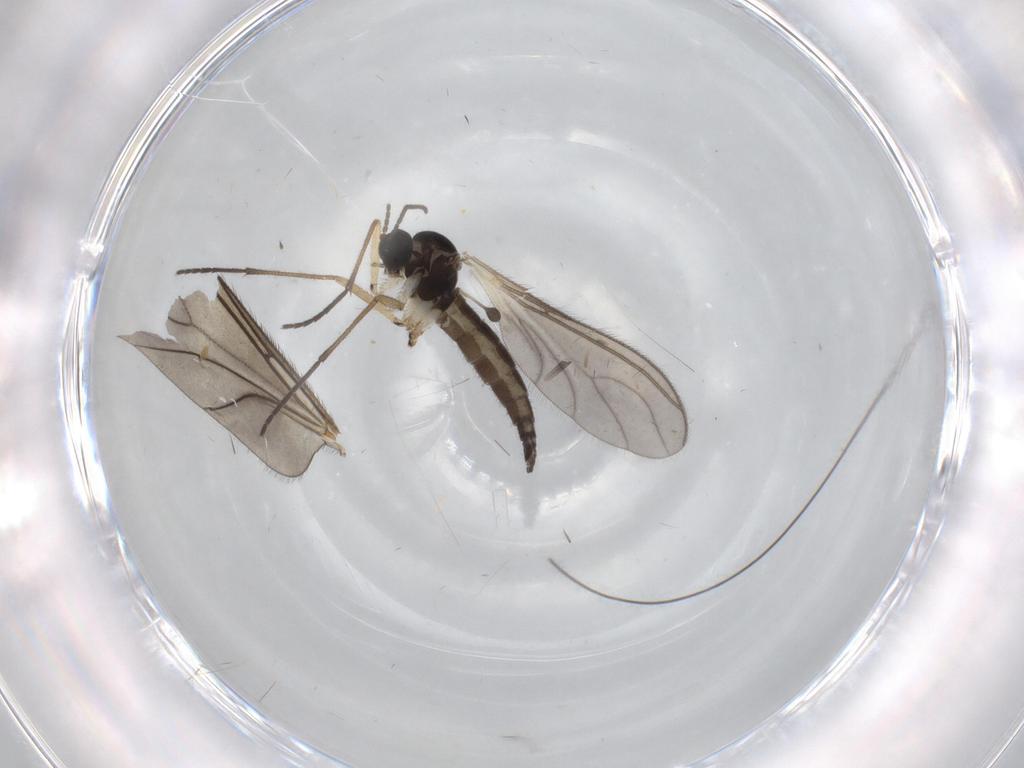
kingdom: Animalia
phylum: Arthropoda
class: Insecta
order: Diptera
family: Sciaridae
